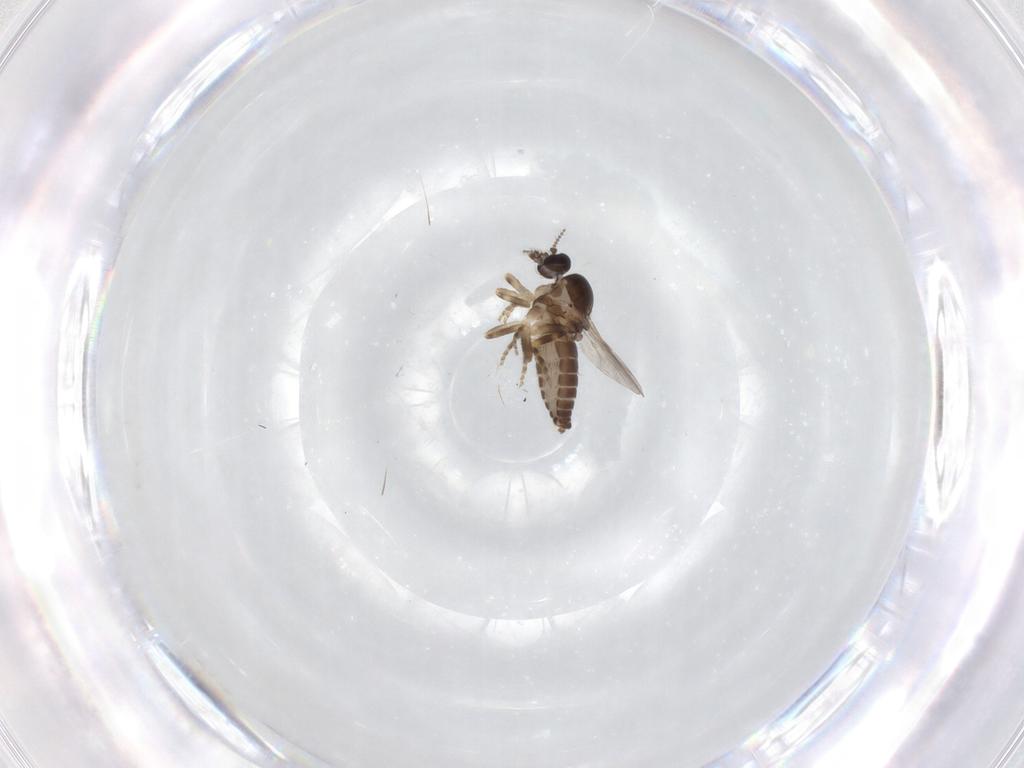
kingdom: Animalia
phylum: Arthropoda
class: Insecta
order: Diptera
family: Ceratopogonidae
